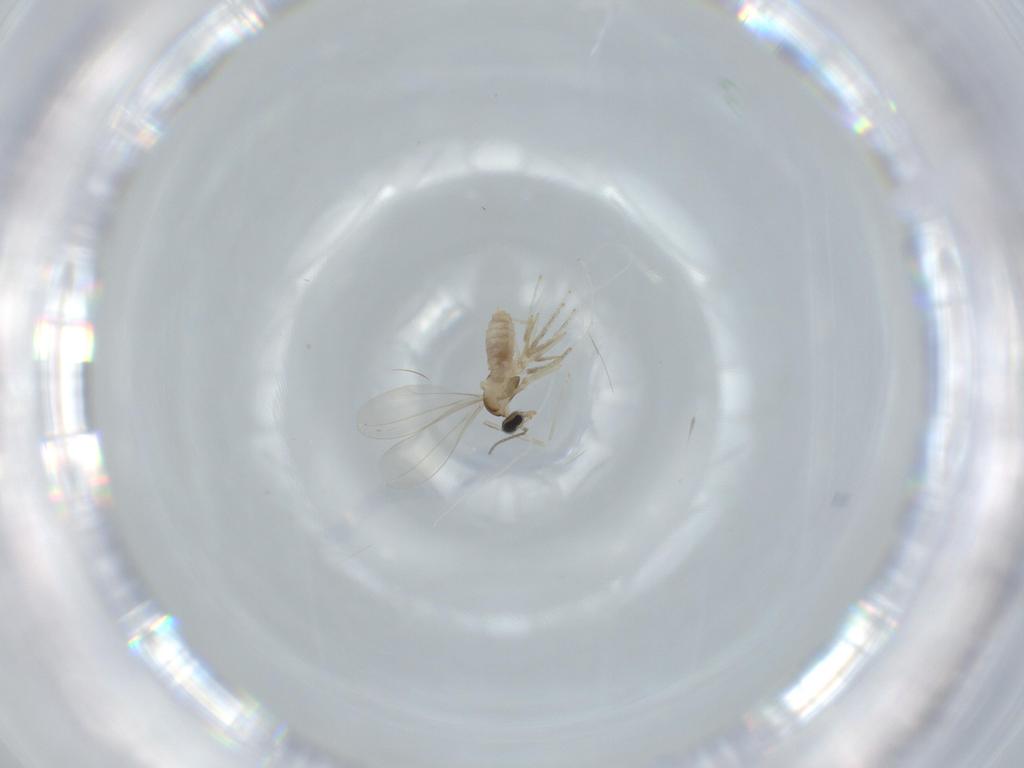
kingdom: Animalia
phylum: Arthropoda
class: Insecta
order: Diptera
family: Cecidomyiidae
